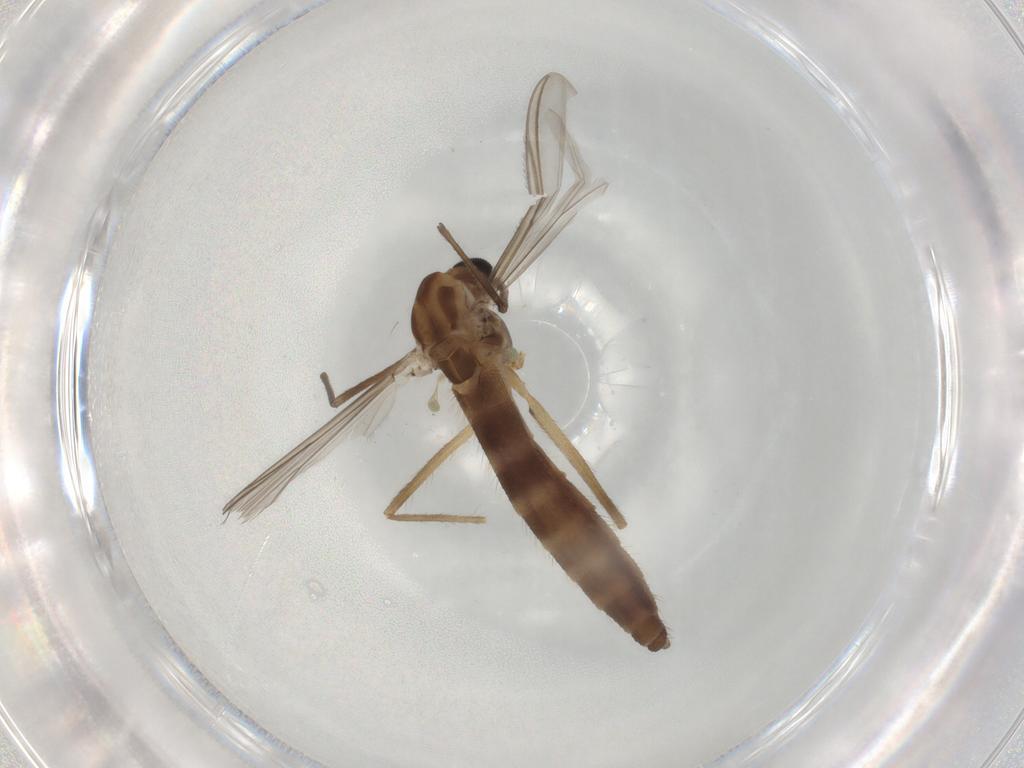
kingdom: Animalia
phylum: Arthropoda
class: Insecta
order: Diptera
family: Chironomidae
